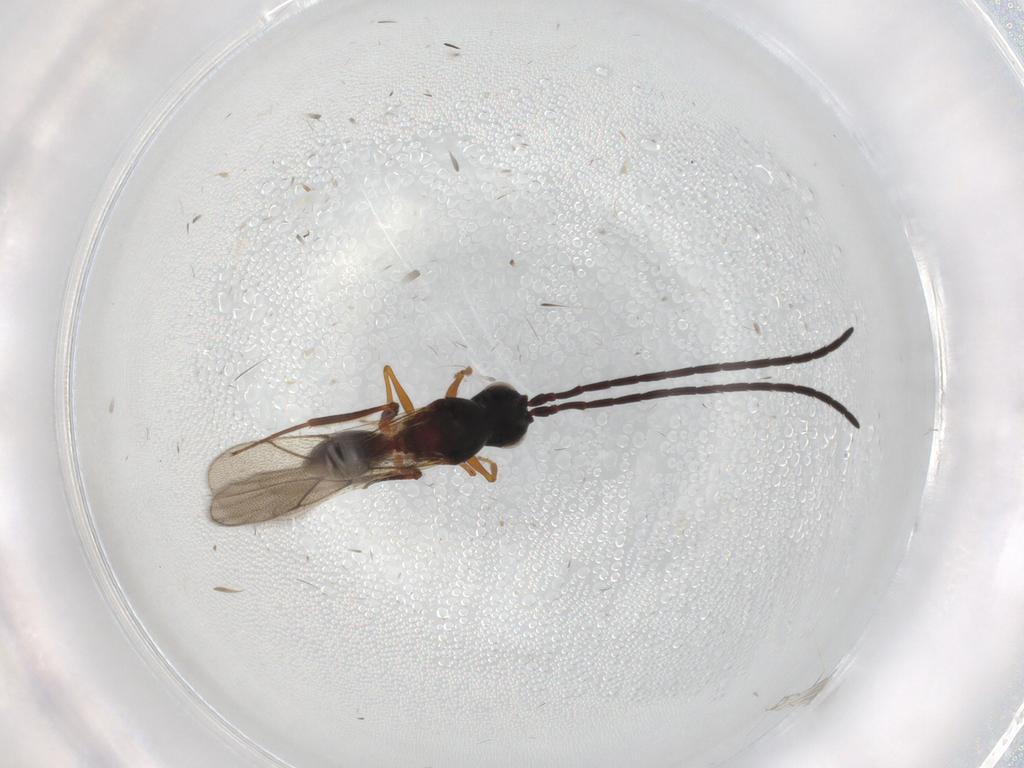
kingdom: Animalia
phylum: Arthropoda
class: Insecta
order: Hymenoptera
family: Figitidae
